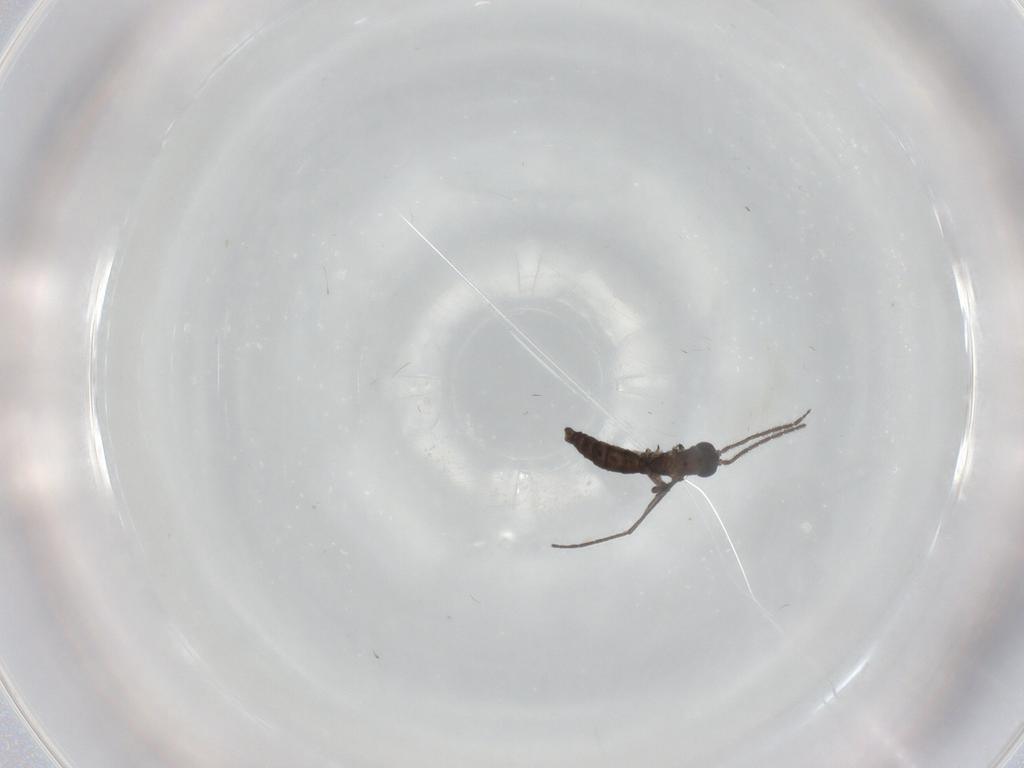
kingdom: Animalia
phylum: Arthropoda
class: Insecta
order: Diptera
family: Sciaridae
